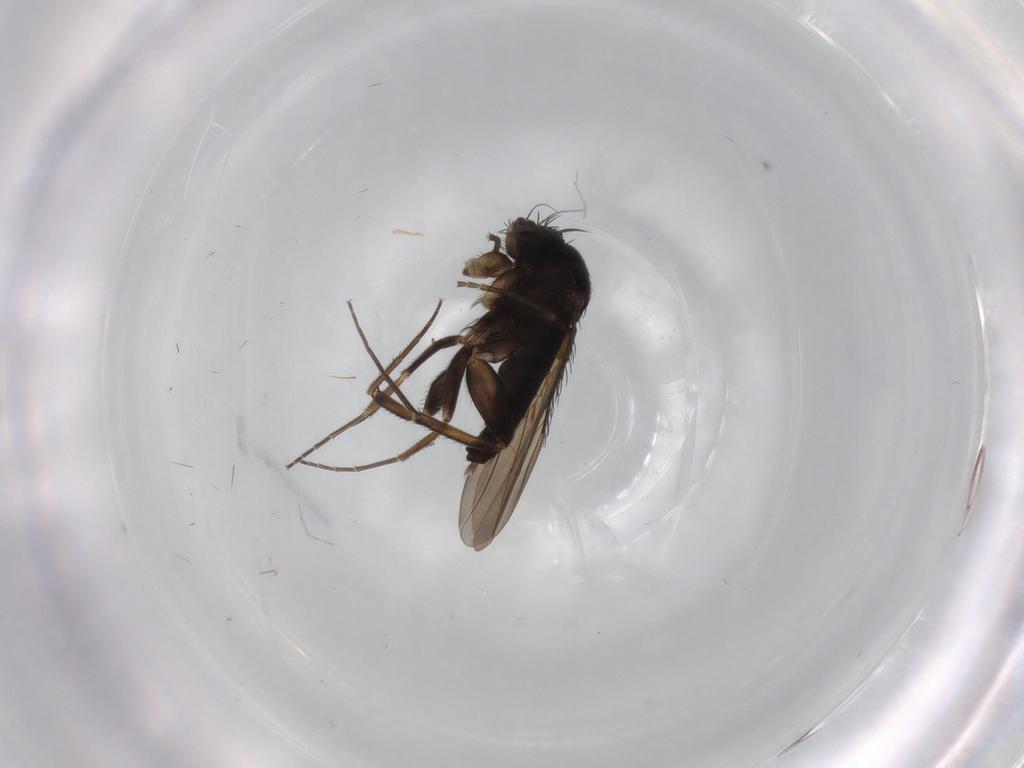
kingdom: Animalia
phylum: Arthropoda
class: Insecta
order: Diptera
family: Phoridae
